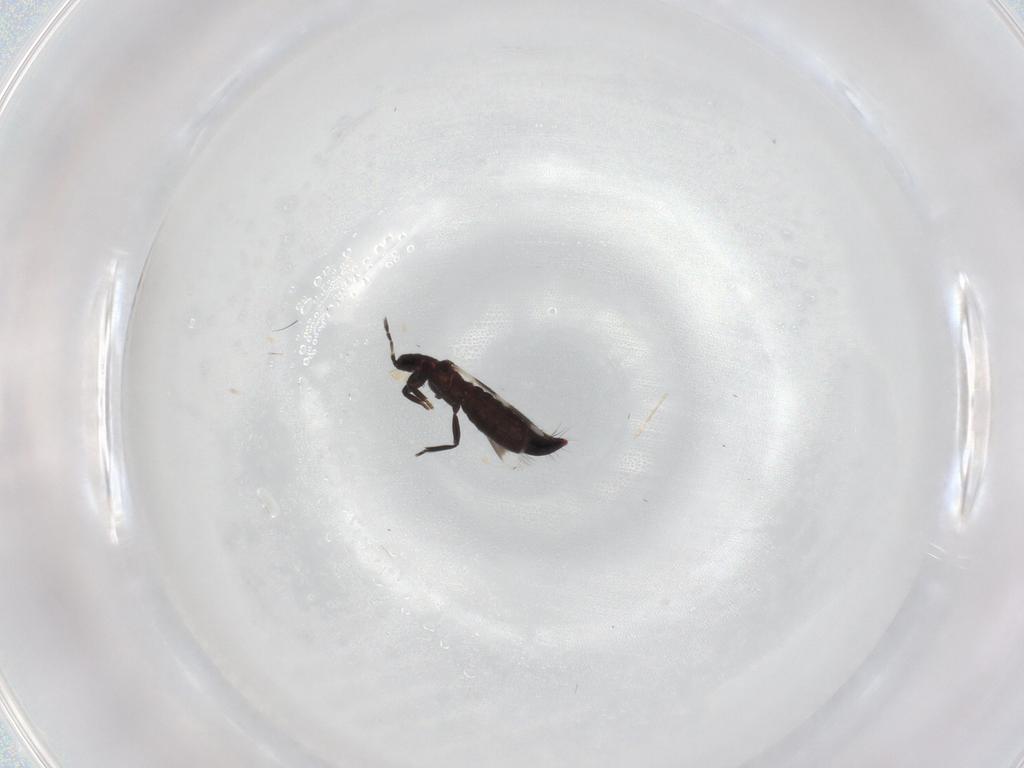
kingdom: Animalia
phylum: Arthropoda
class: Insecta
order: Thysanoptera
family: Aeolothripidae
